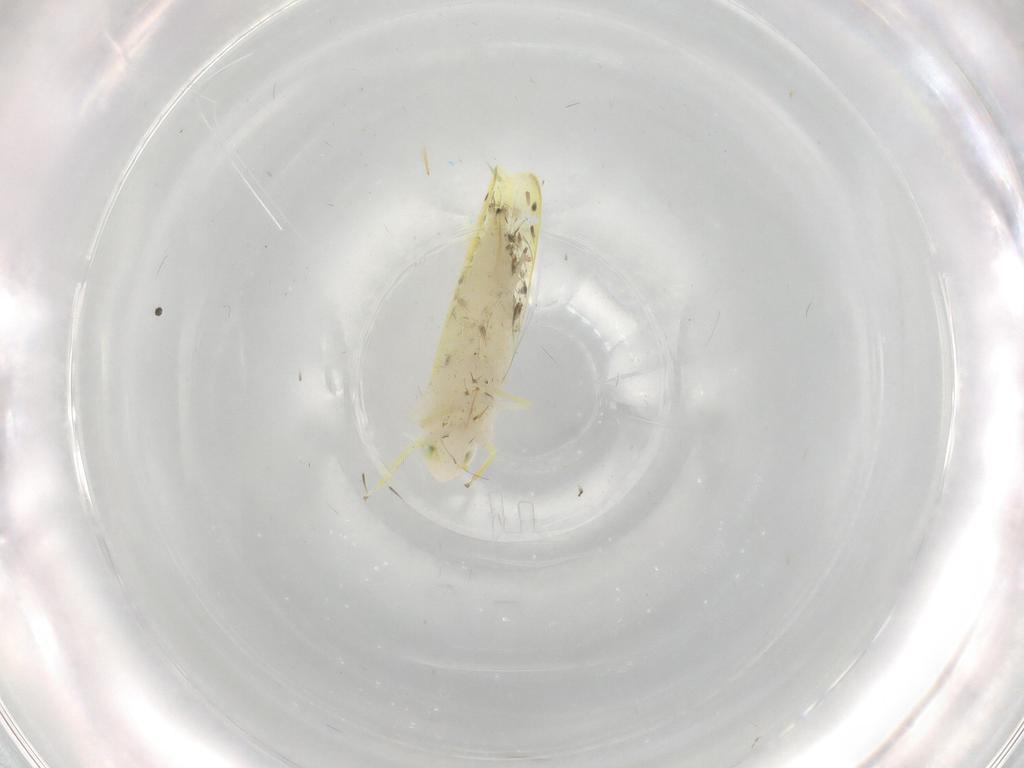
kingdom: Animalia
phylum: Arthropoda
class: Insecta
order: Hemiptera
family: Cicadellidae
